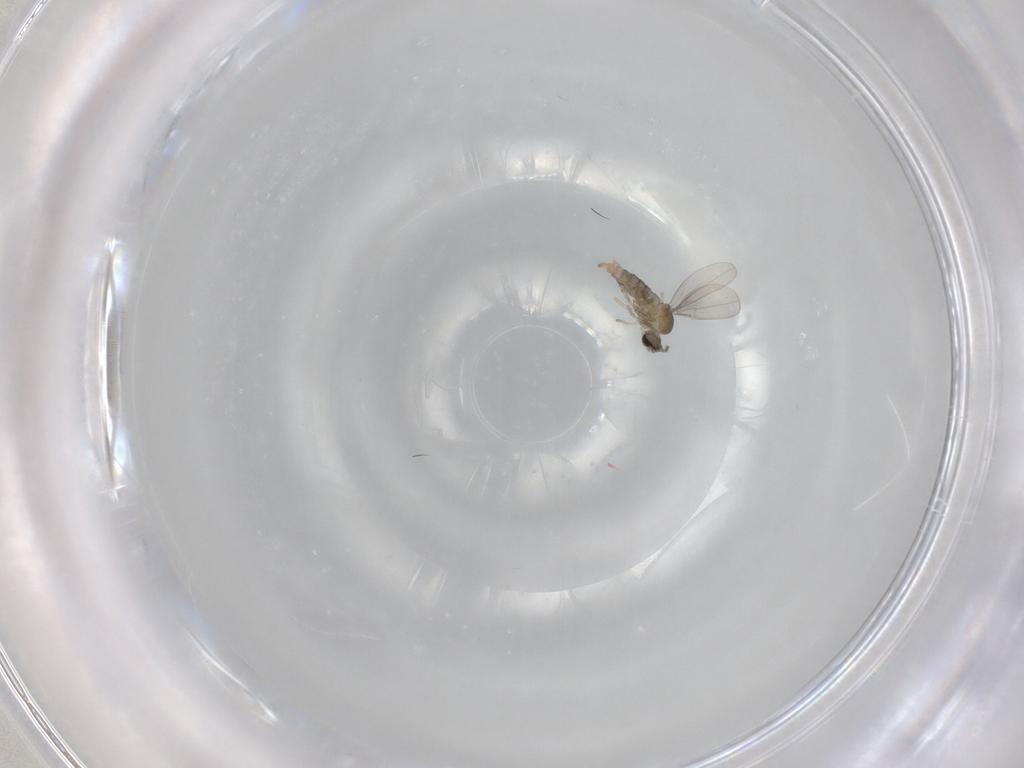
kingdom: Animalia
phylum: Arthropoda
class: Insecta
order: Diptera
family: Cecidomyiidae
